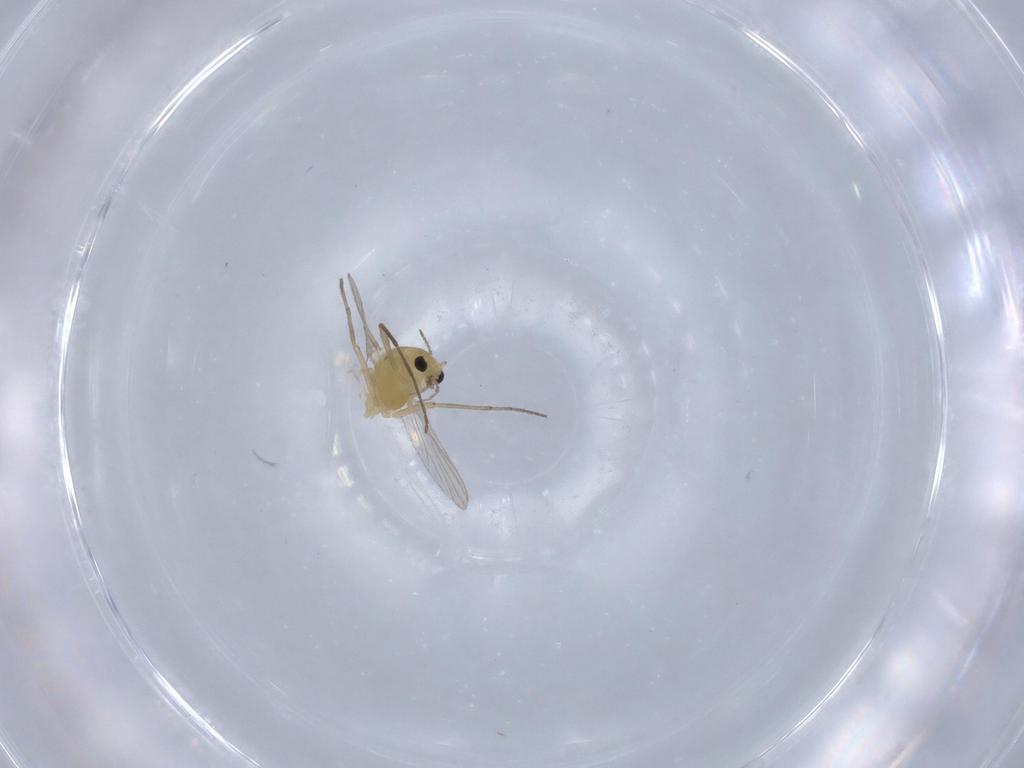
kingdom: Animalia
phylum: Arthropoda
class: Insecta
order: Diptera
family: Chironomidae
